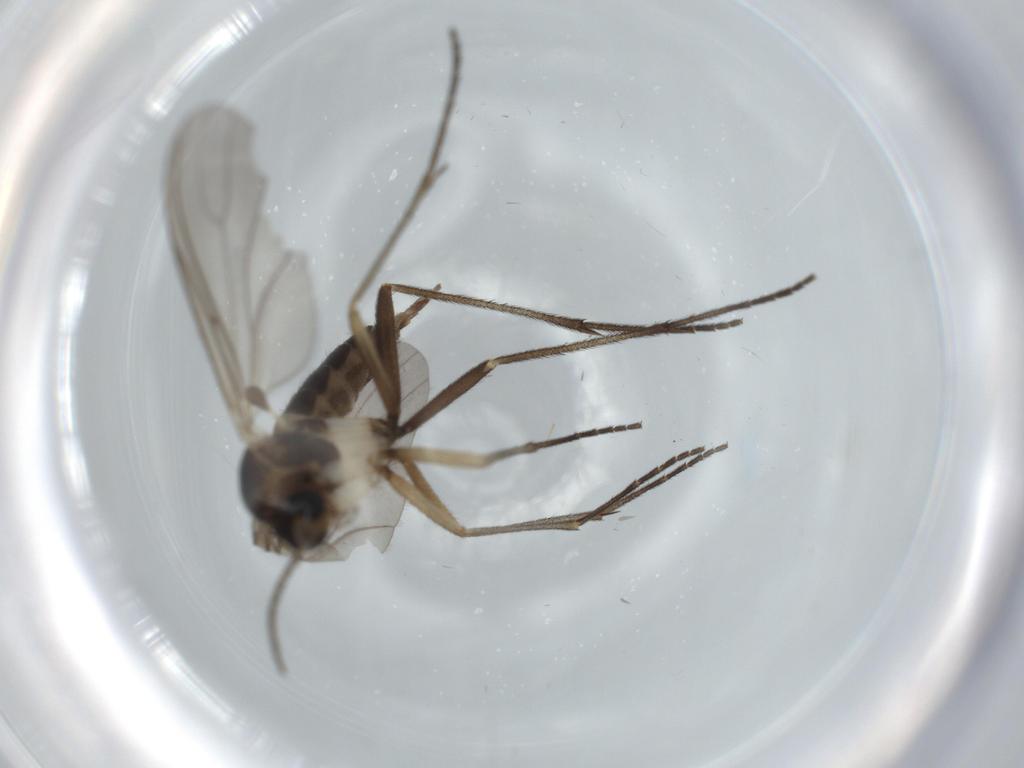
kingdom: Animalia
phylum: Arthropoda
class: Insecta
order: Diptera
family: Sciaridae
